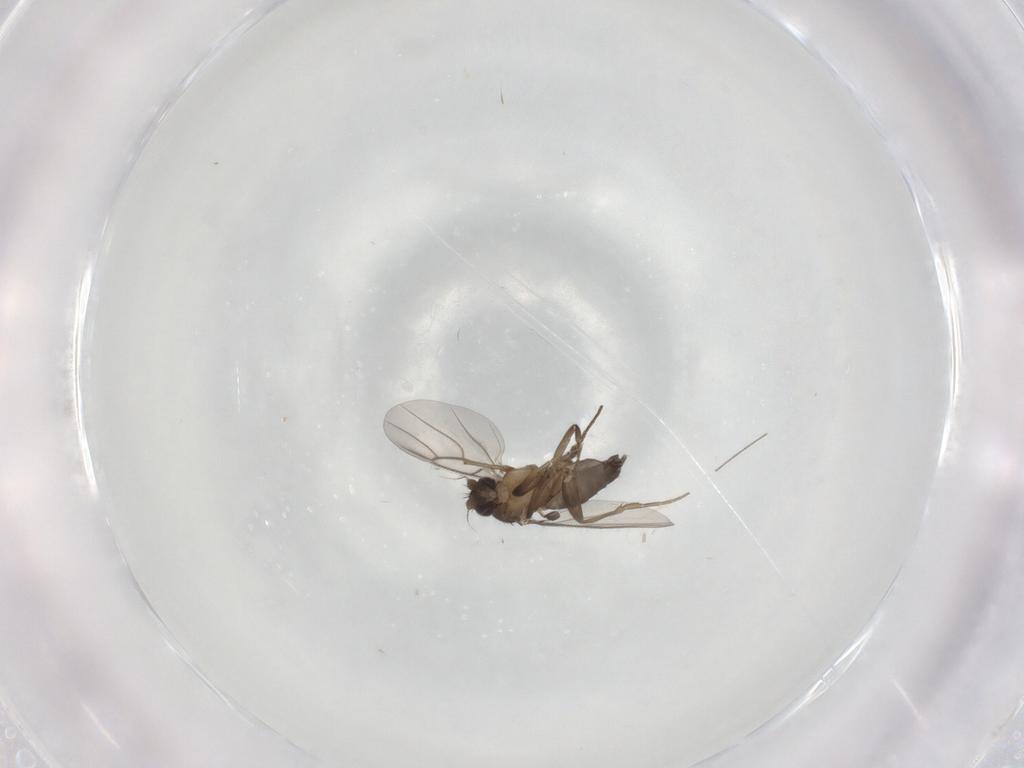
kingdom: Animalia
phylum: Arthropoda
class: Insecta
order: Diptera
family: Phoridae
